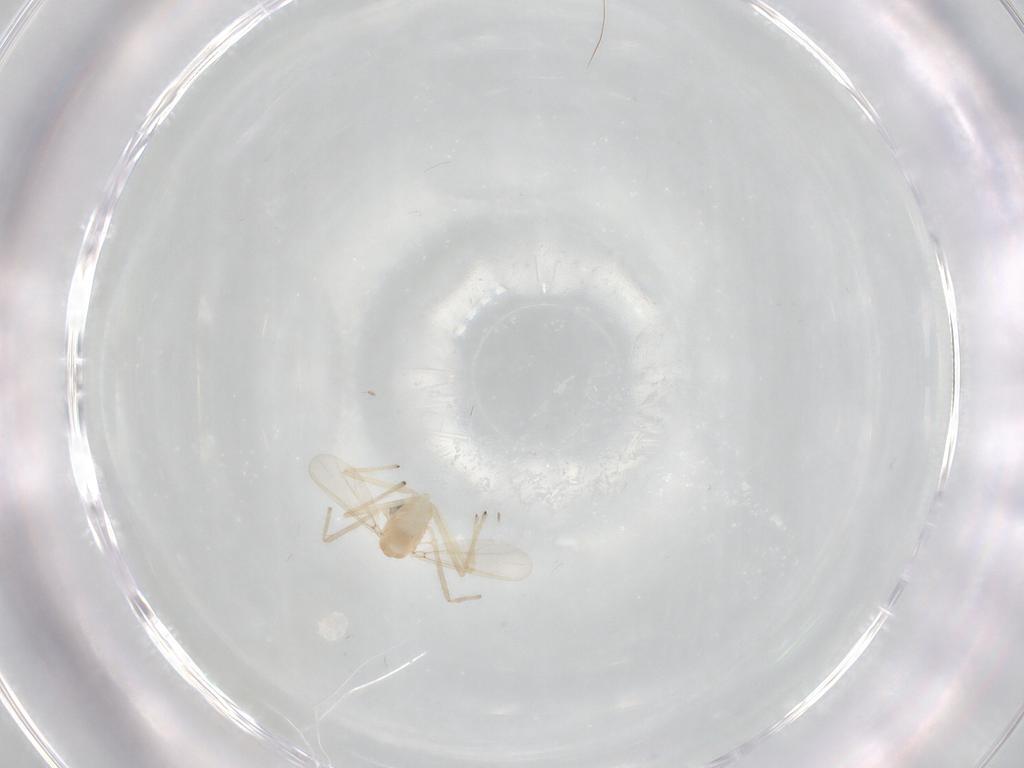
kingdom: Animalia
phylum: Arthropoda
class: Insecta
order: Diptera
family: Chironomidae
